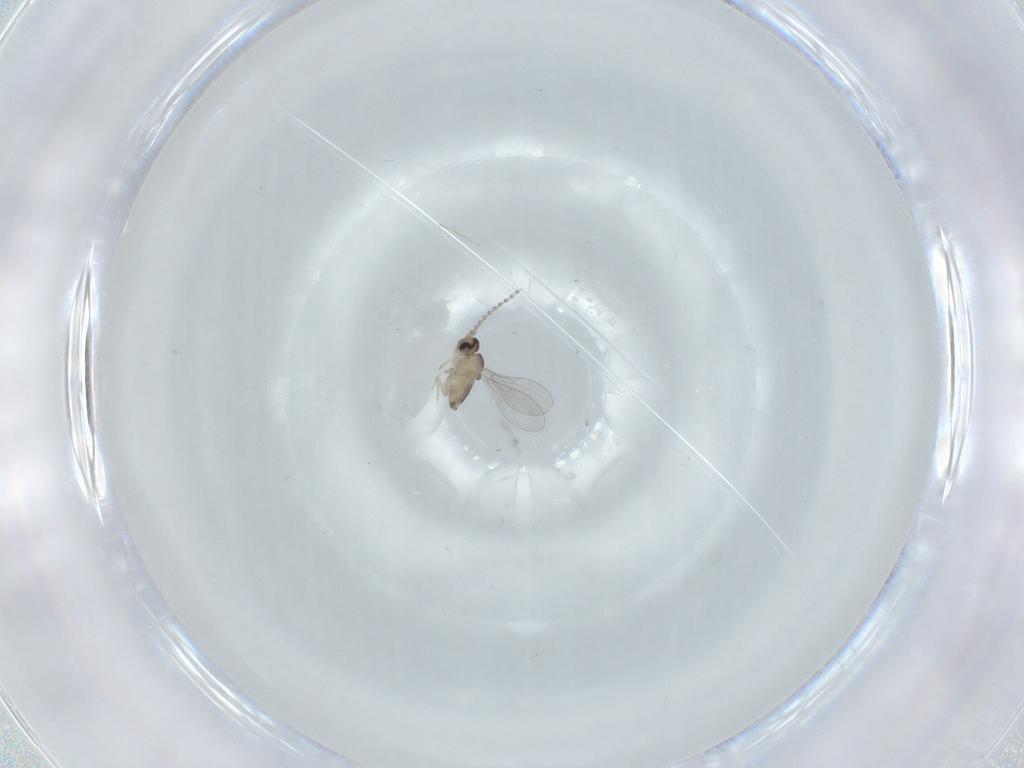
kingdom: Animalia
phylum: Arthropoda
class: Insecta
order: Diptera
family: Cecidomyiidae
